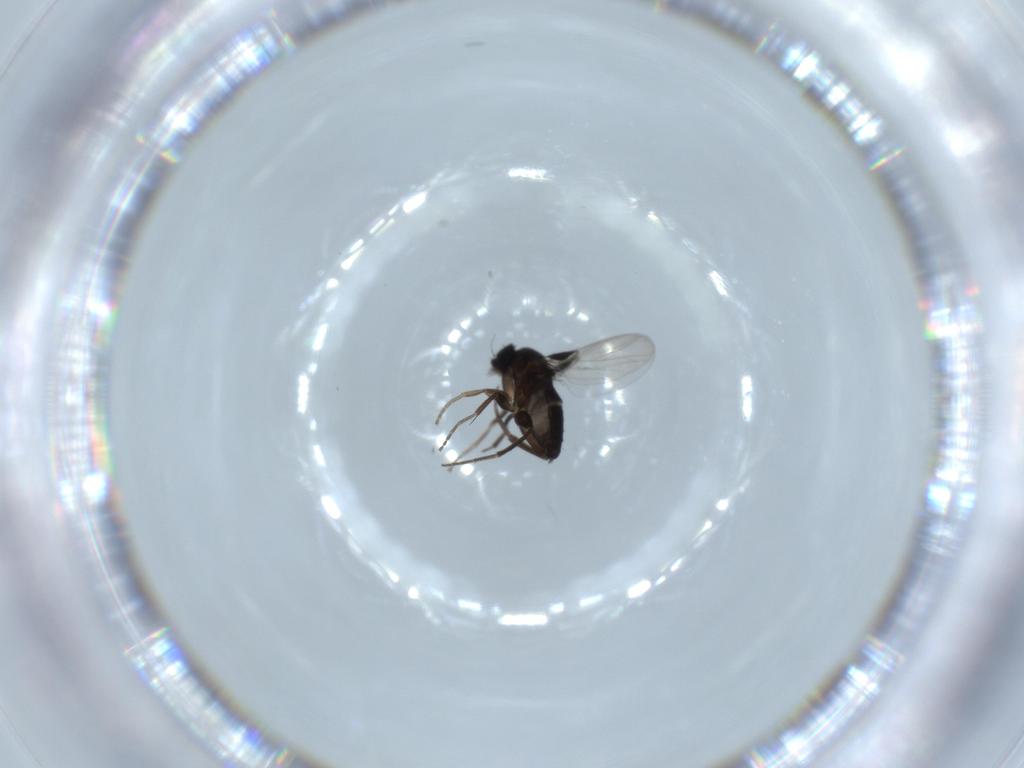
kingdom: Animalia
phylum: Arthropoda
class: Insecta
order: Diptera
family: Phoridae
